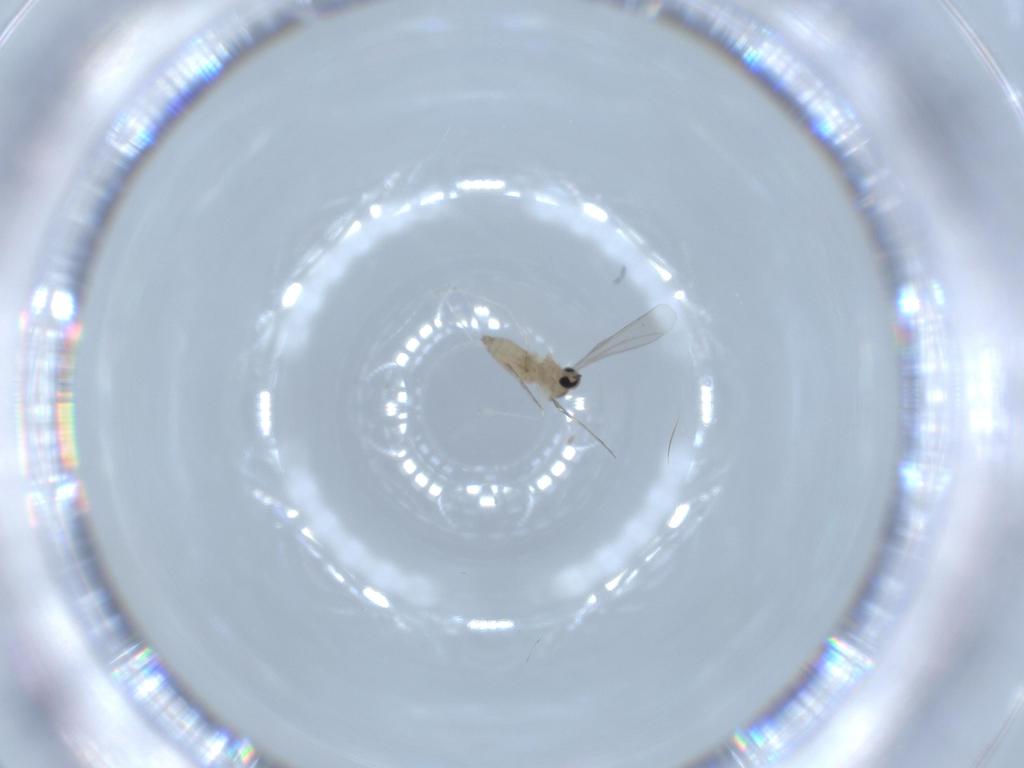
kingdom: Animalia
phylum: Arthropoda
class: Insecta
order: Diptera
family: Cecidomyiidae
